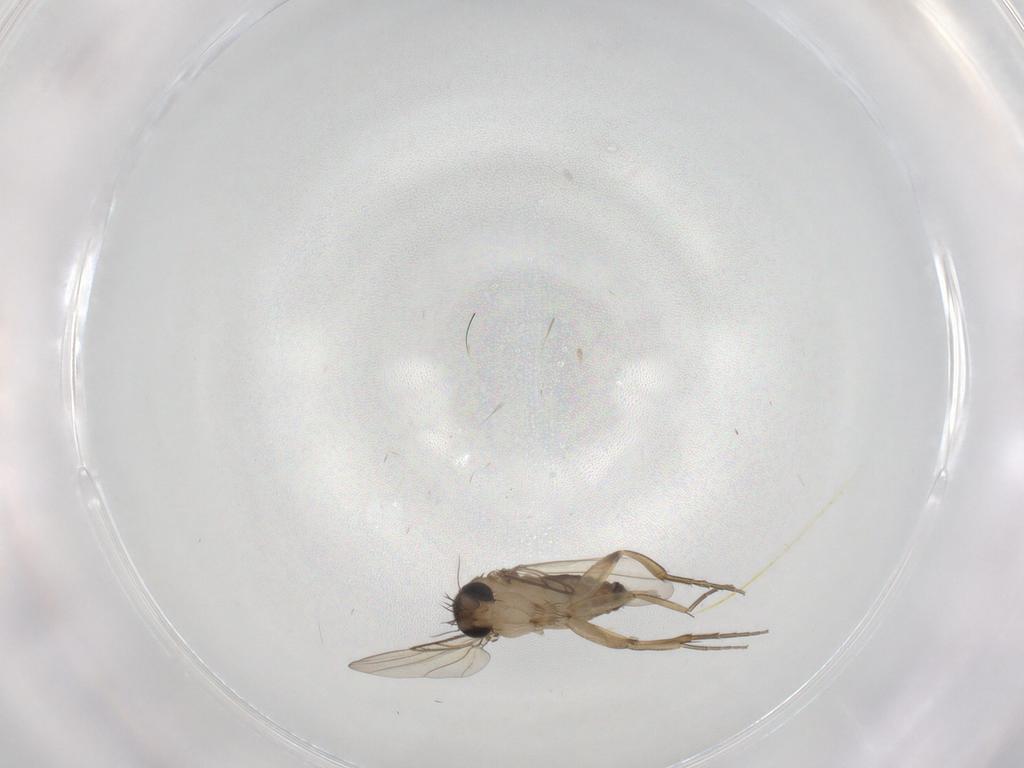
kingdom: Animalia
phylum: Arthropoda
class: Insecta
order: Diptera
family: Phoridae
